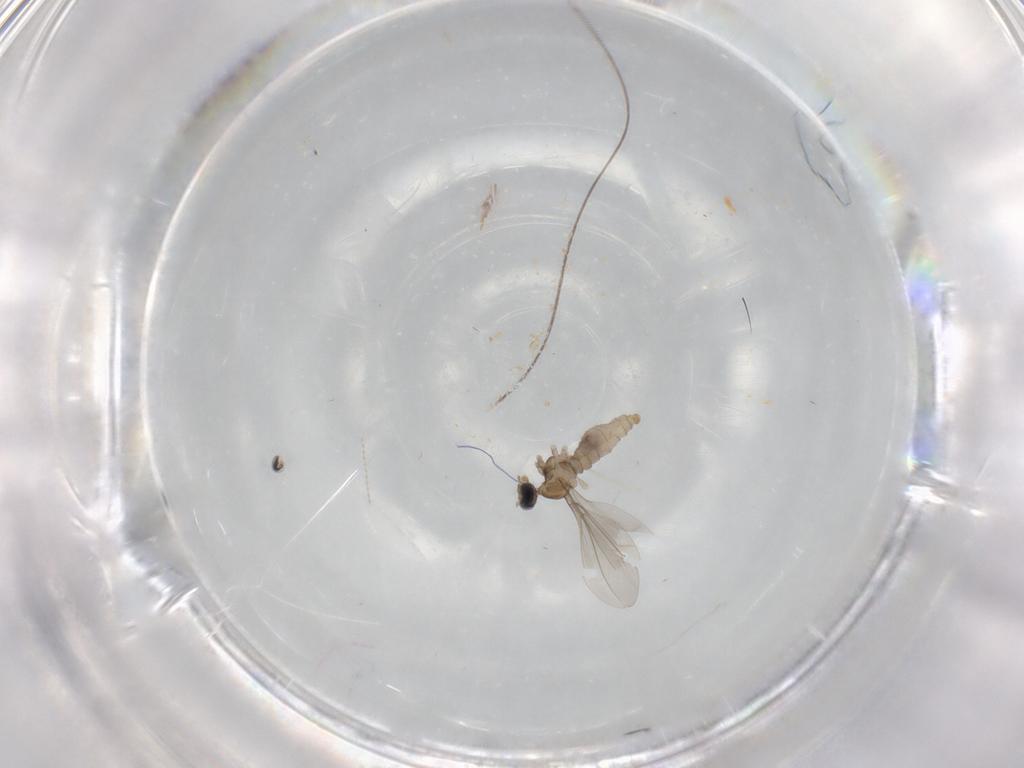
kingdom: Animalia
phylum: Arthropoda
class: Insecta
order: Diptera
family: Cecidomyiidae
